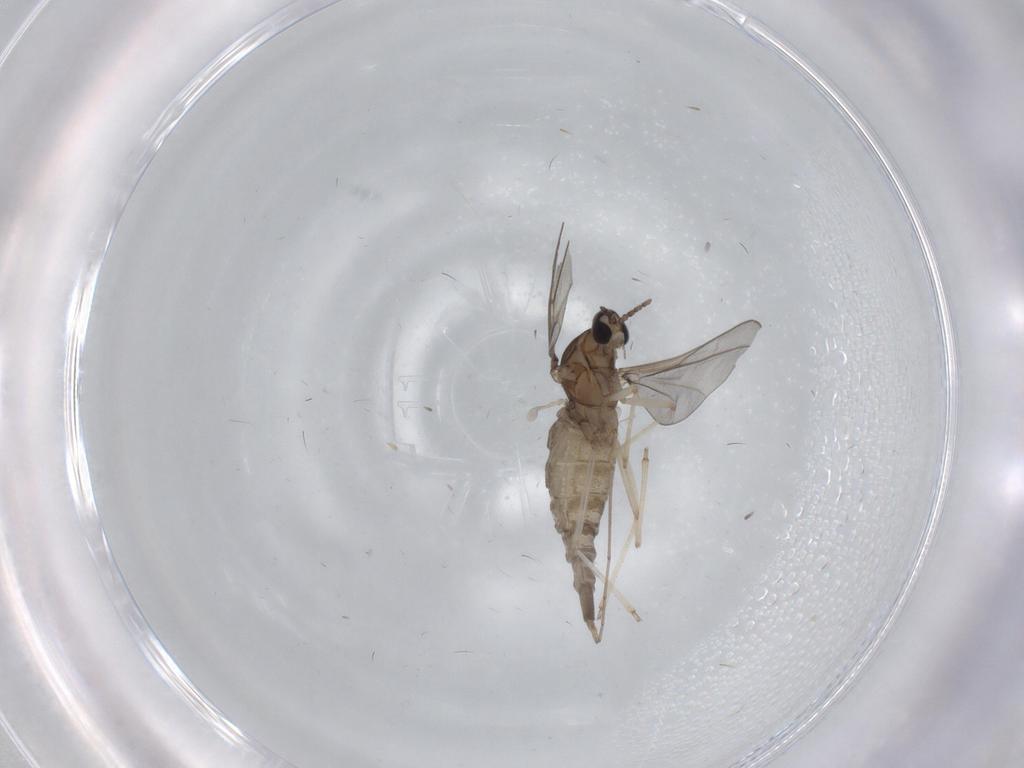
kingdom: Animalia
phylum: Arthropoda
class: Insecta
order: Diptera
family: Cecidomyiidae
